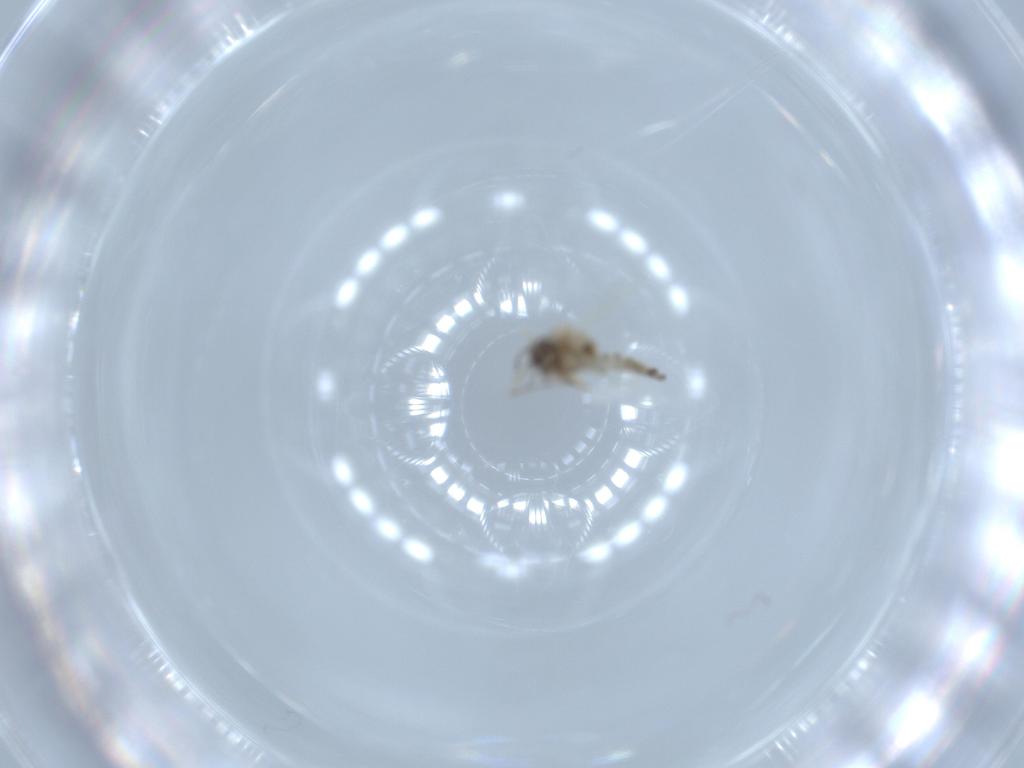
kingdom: Animalia
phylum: Arthropoda
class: Insecta
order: Diptera
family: Ceratopogonidae
